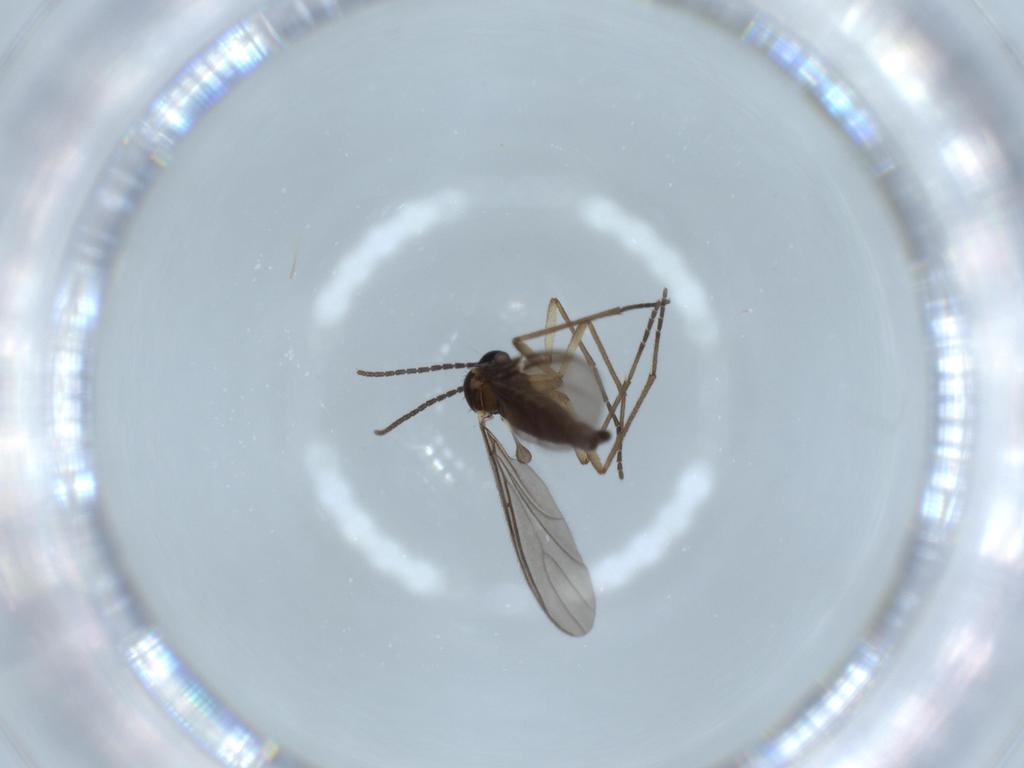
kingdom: Animalia
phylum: Arthropoda
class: Insecta
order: Diptera
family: Sciaridae
